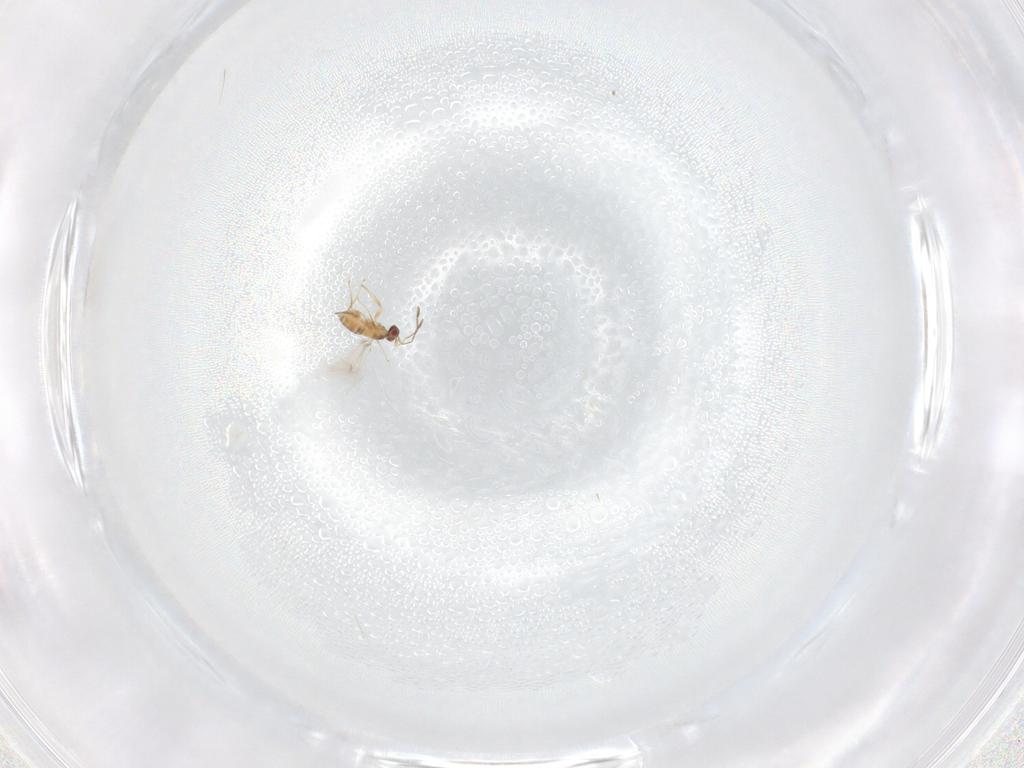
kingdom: Animalia
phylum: Arthropoda
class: Insecta
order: Hymenoptera
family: Mymaridae
